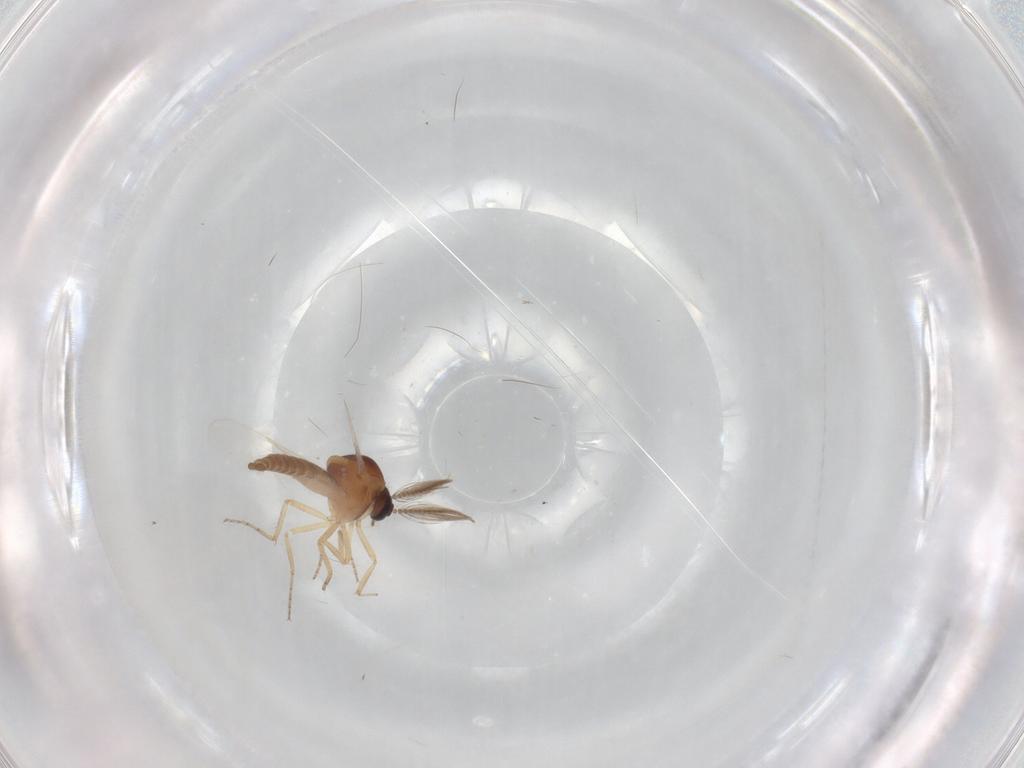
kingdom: Animalia
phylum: Arthropoda
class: Insecta
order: Diptera
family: Ceratopogonidae
